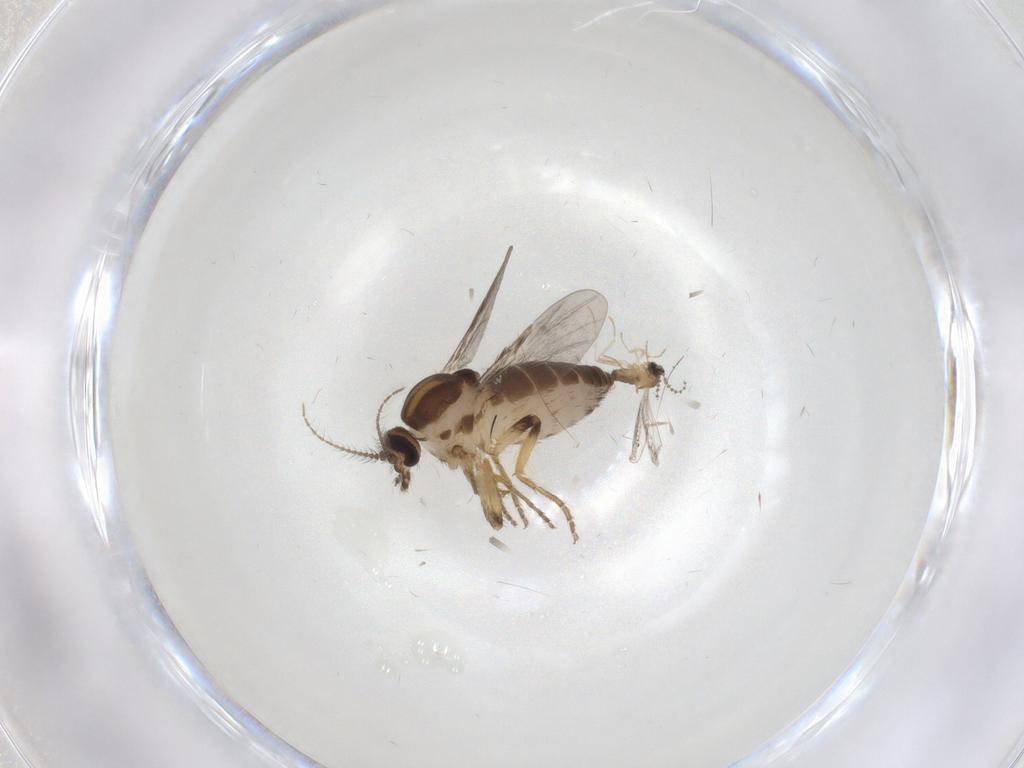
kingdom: Animalia
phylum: Arthropoda
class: Insecta
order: Diptera
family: Ceratopogonidae
